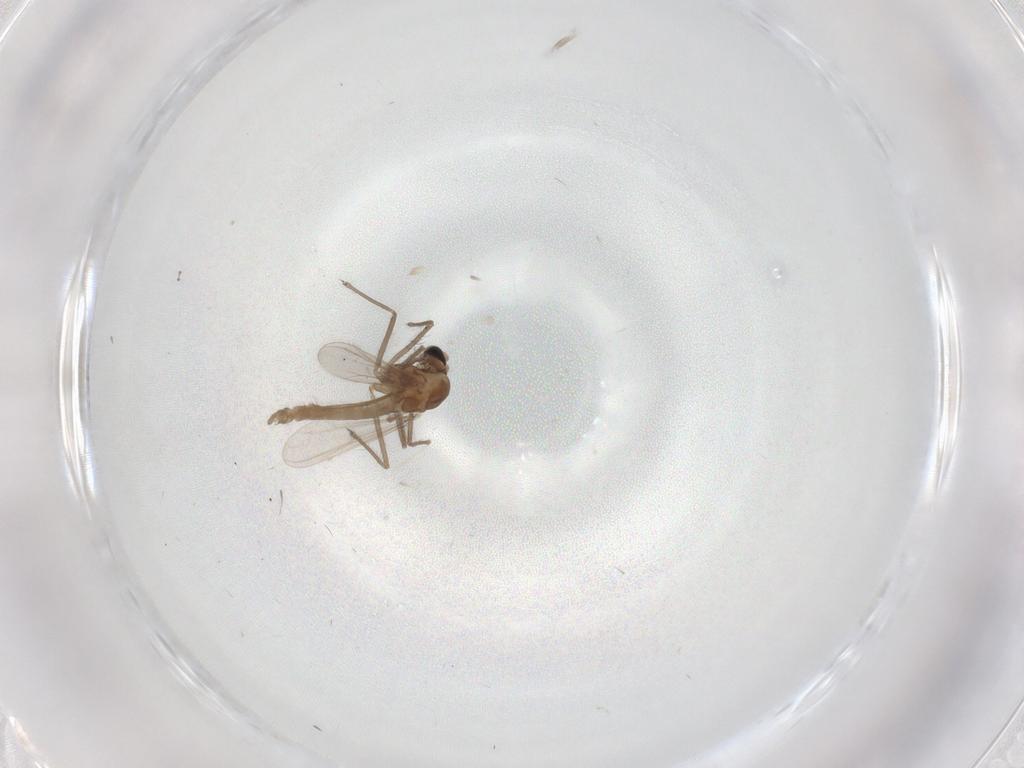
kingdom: Animalia
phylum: Arthropoda
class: Insecta
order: Diptera
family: Chironomidae
